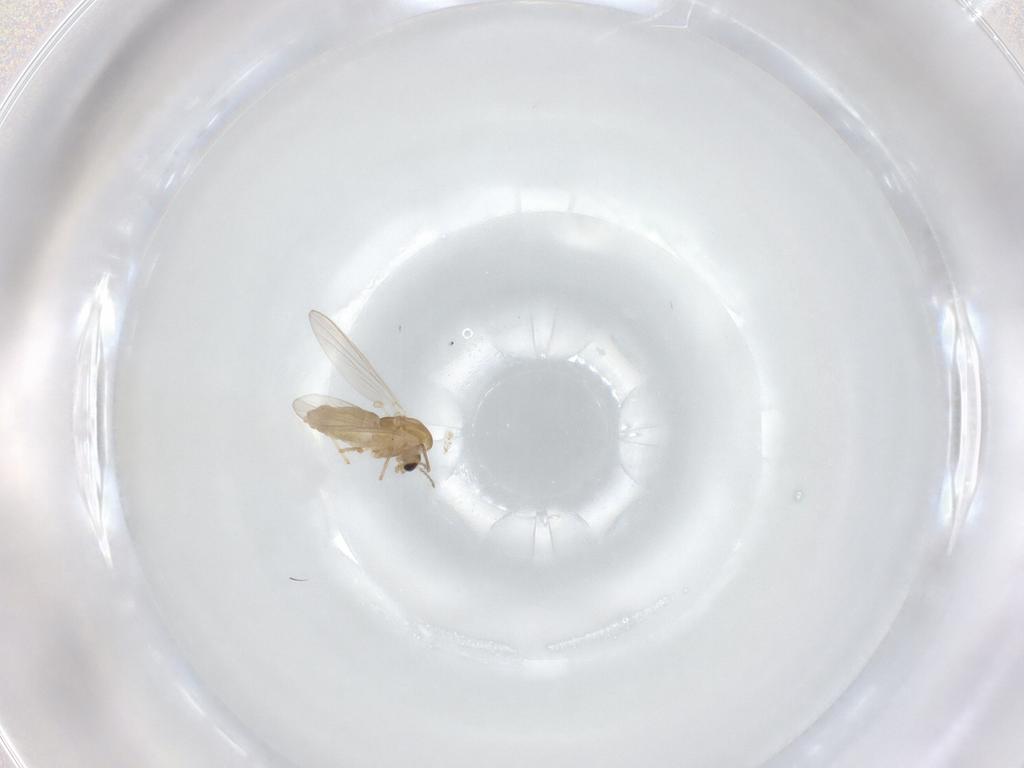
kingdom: Animalia
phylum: Arthropoda
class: Insecta
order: Diptera
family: Chironomidae
